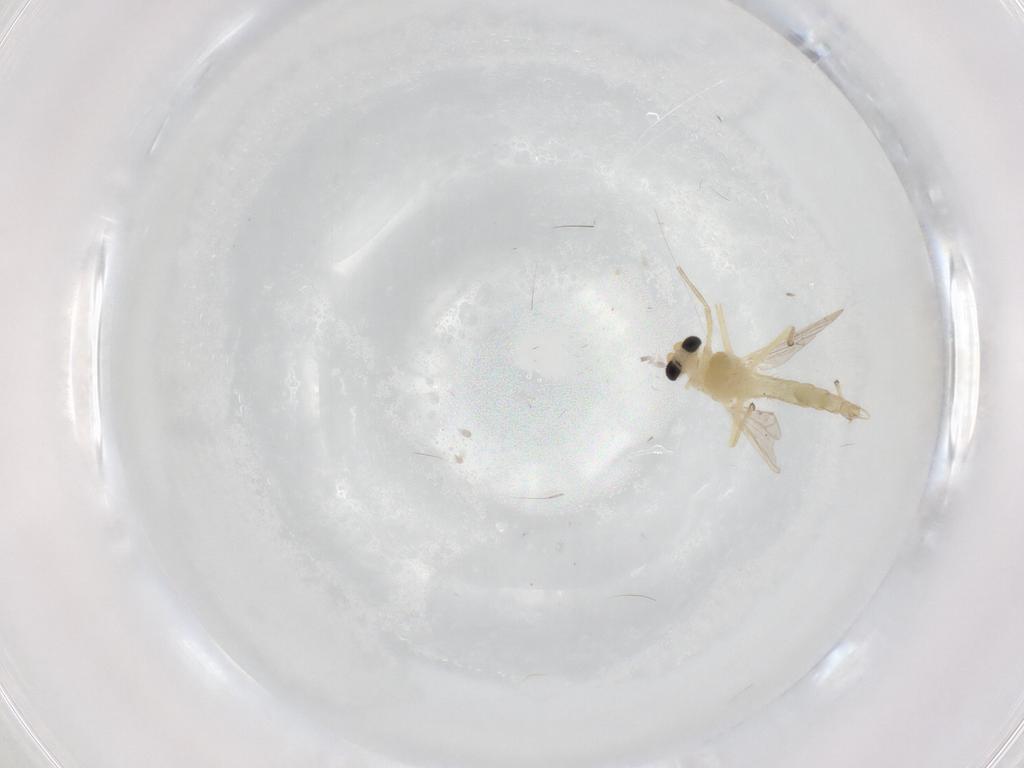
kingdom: Animalia
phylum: Arthropoda
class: Insecta
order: Diptera
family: Chironomidae
